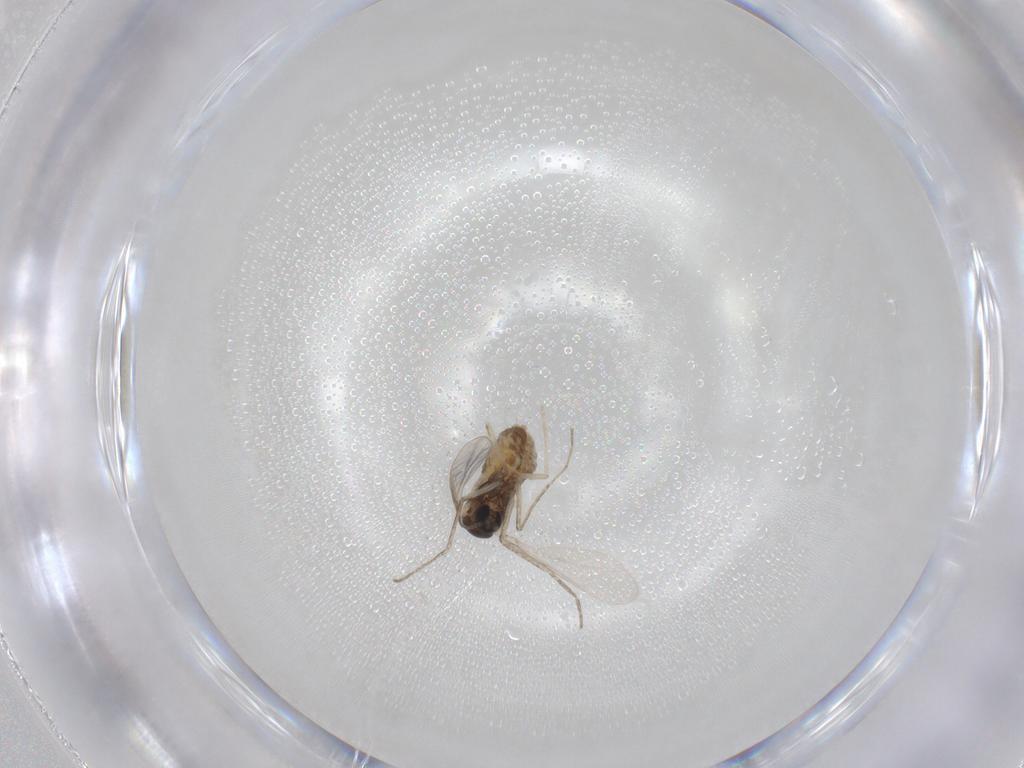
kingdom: Animalia
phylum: Arthropoda
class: Insecta
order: Diptera
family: Cecidomyiidae
